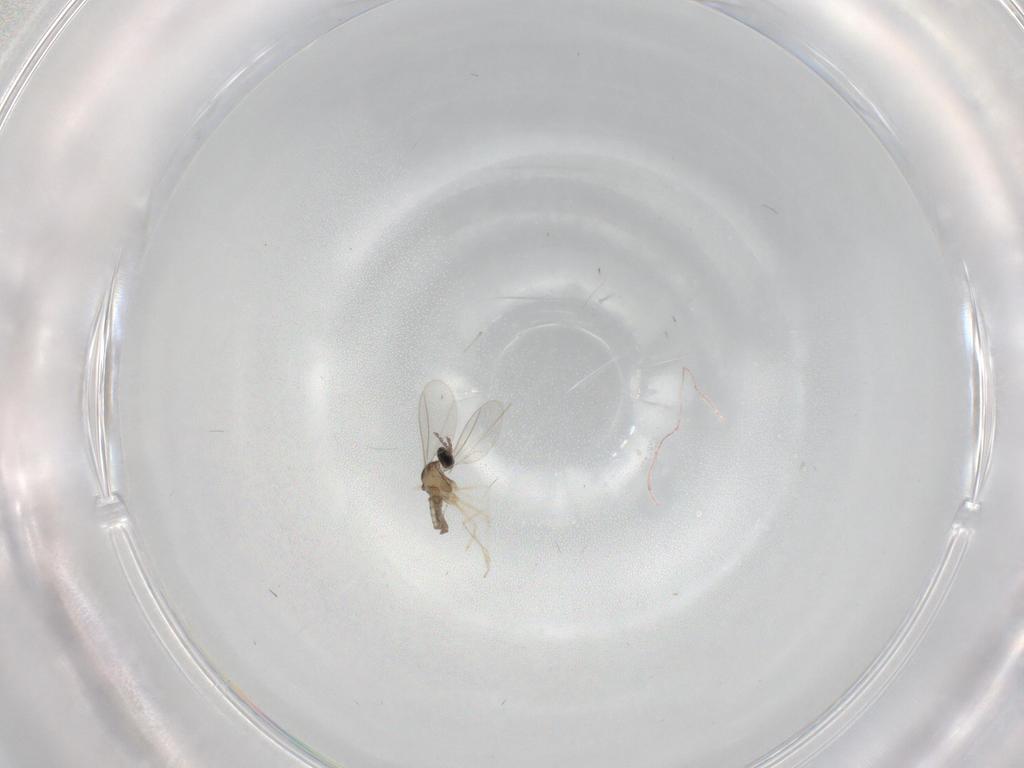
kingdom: Animalia
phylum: Arthropoda
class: Insecta
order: Diptera
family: Cecidomyiidae
